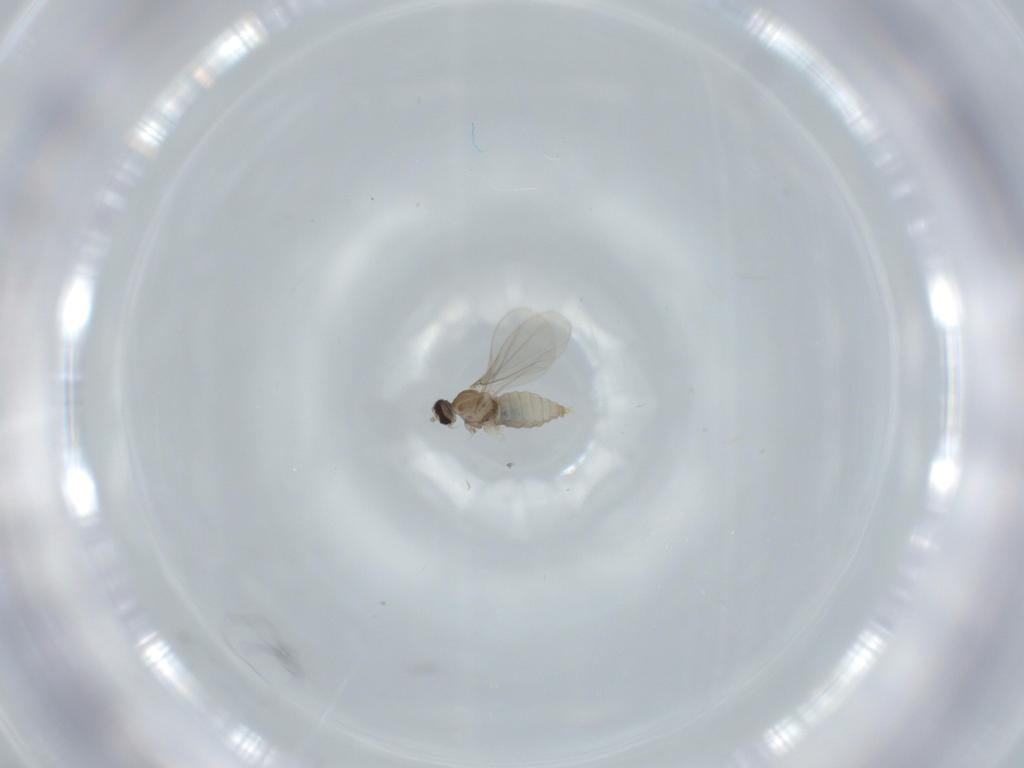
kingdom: Animalia
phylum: Arthropoda
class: Insecta
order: Diptera
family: Cecidomyiidae
